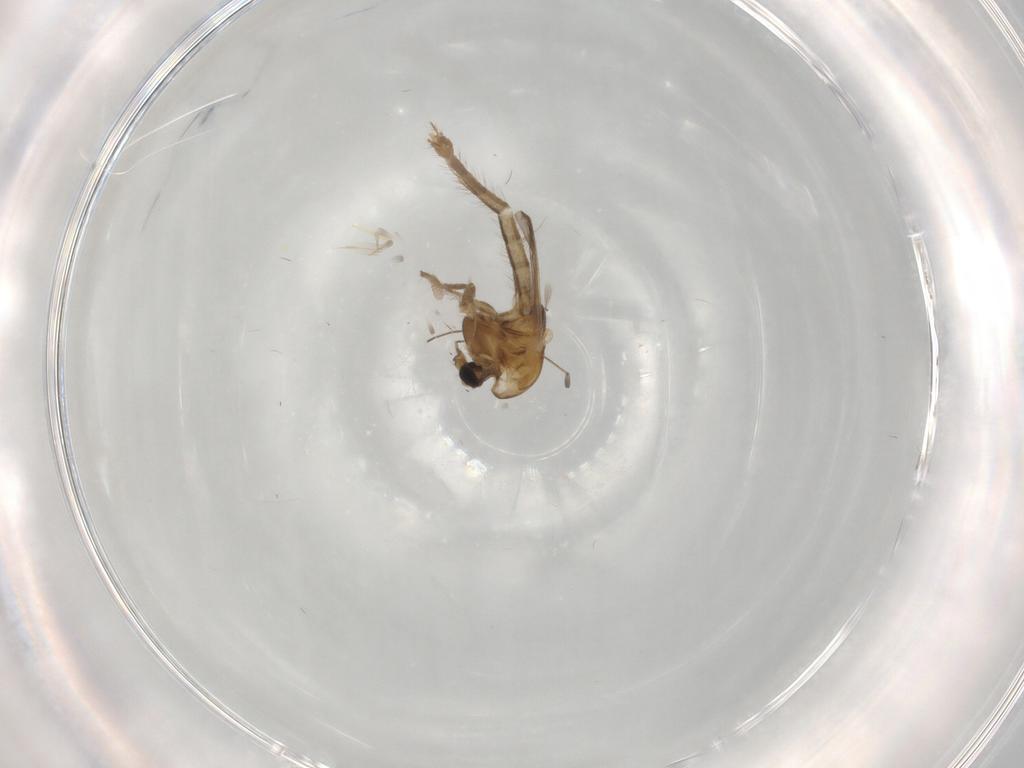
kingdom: Animalia
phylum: Arthropoda
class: Insecta
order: Diptera
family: Chironomidae
